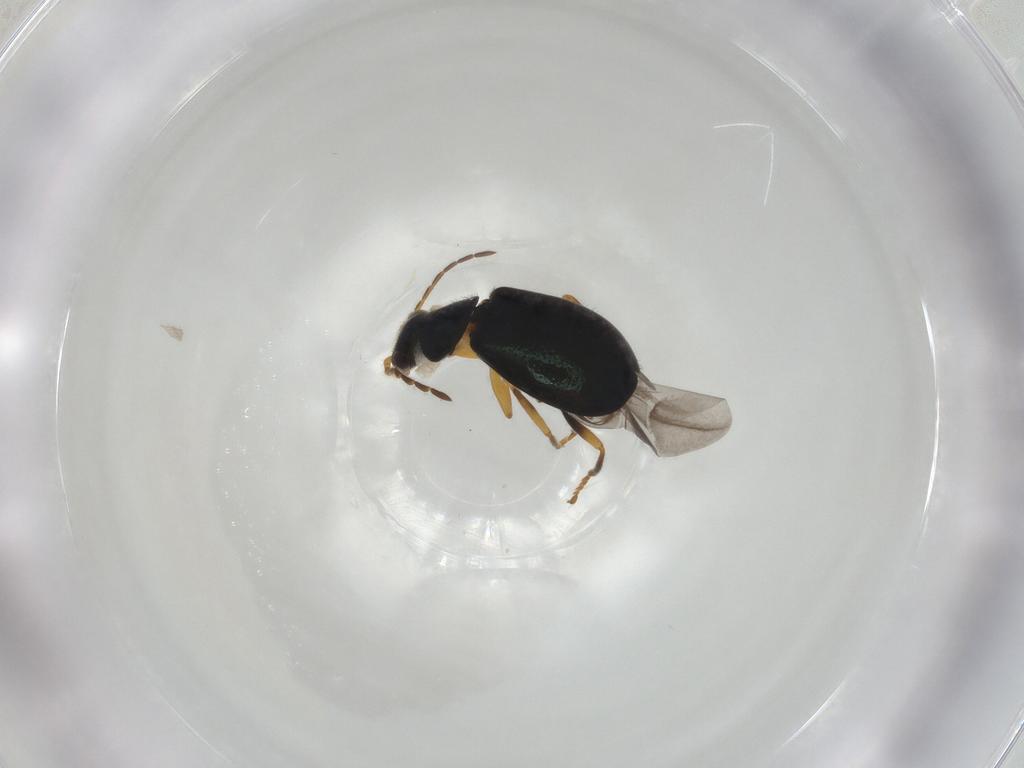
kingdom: Animalia
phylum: Arthropoda
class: Insecta
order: Coleoptera
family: Melyridae
